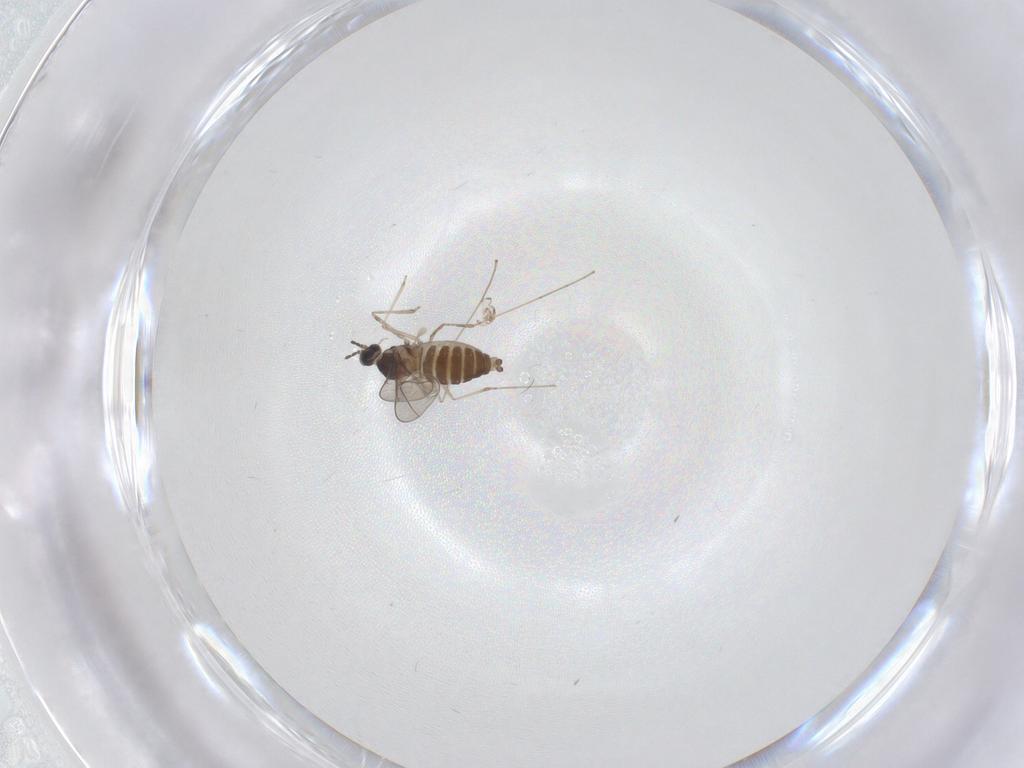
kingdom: Animalia
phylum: Arthropoda
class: Insecta
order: Diptera
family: Cecidomyiidae
